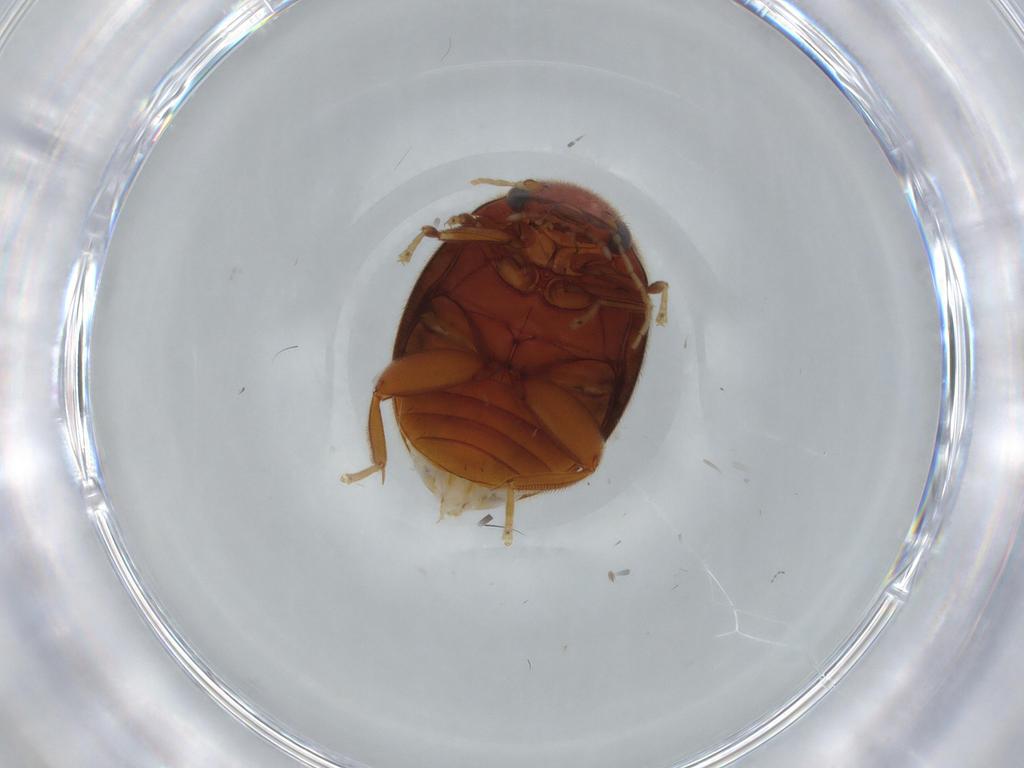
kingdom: Animalia
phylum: Arthropoda
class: Insecta
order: Coleoptera
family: Scirtidae
